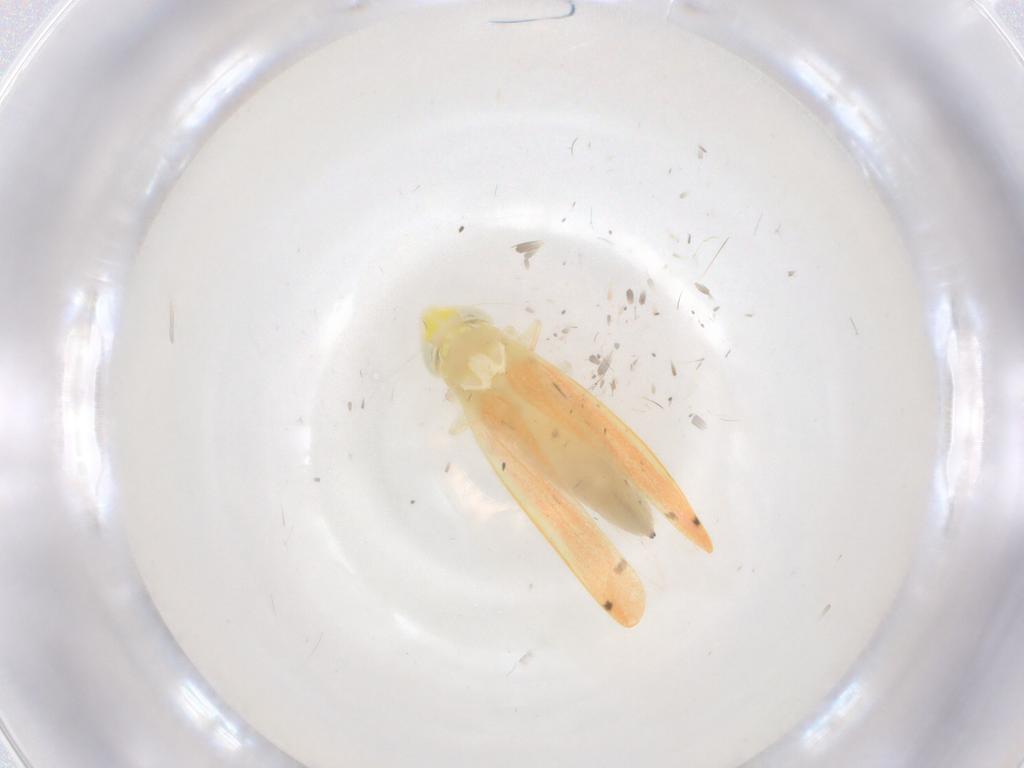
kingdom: Animalia
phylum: Arthropoda
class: Insecta
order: Hemiptera
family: Cicadellidae
